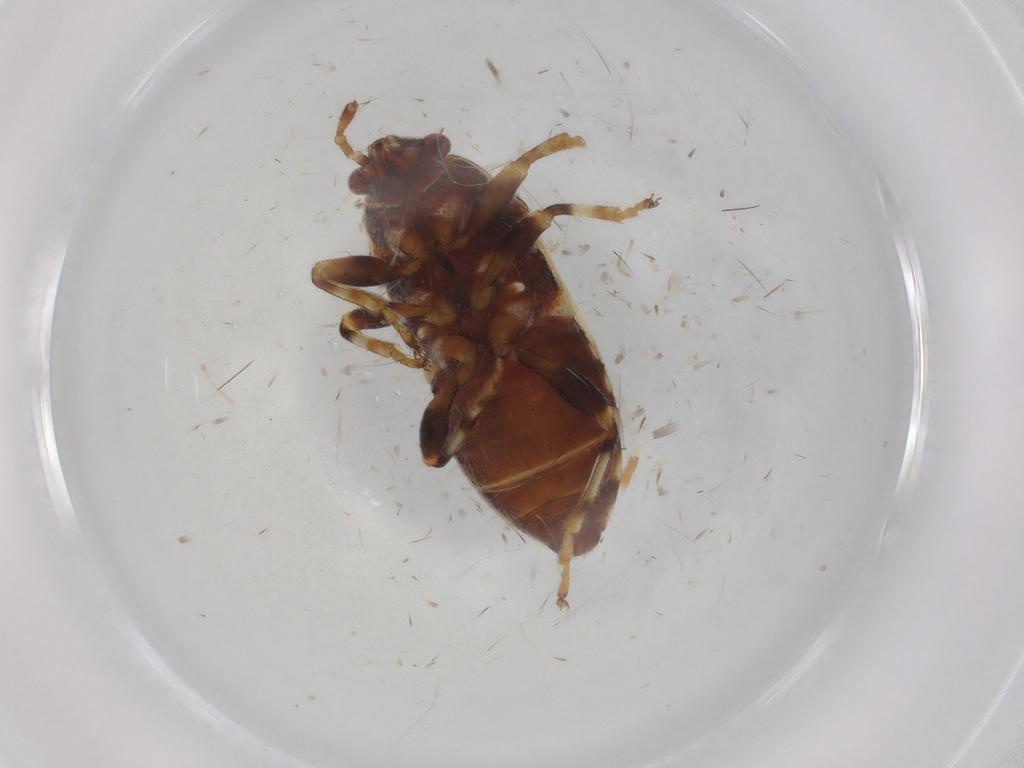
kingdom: Animalia
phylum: Arthropoda
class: Insecta
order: Hemiptera
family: Lygaeidae
